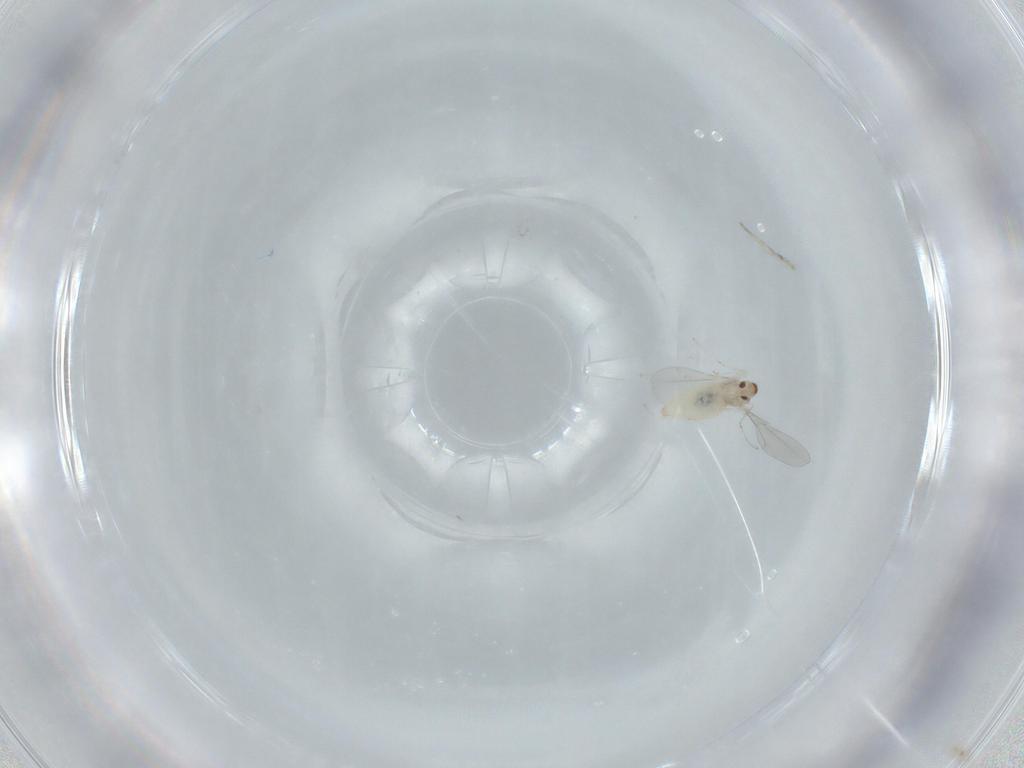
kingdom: Animalia
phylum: Arthropoda
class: Insecta
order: Diptera
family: Cecidomyiidae
